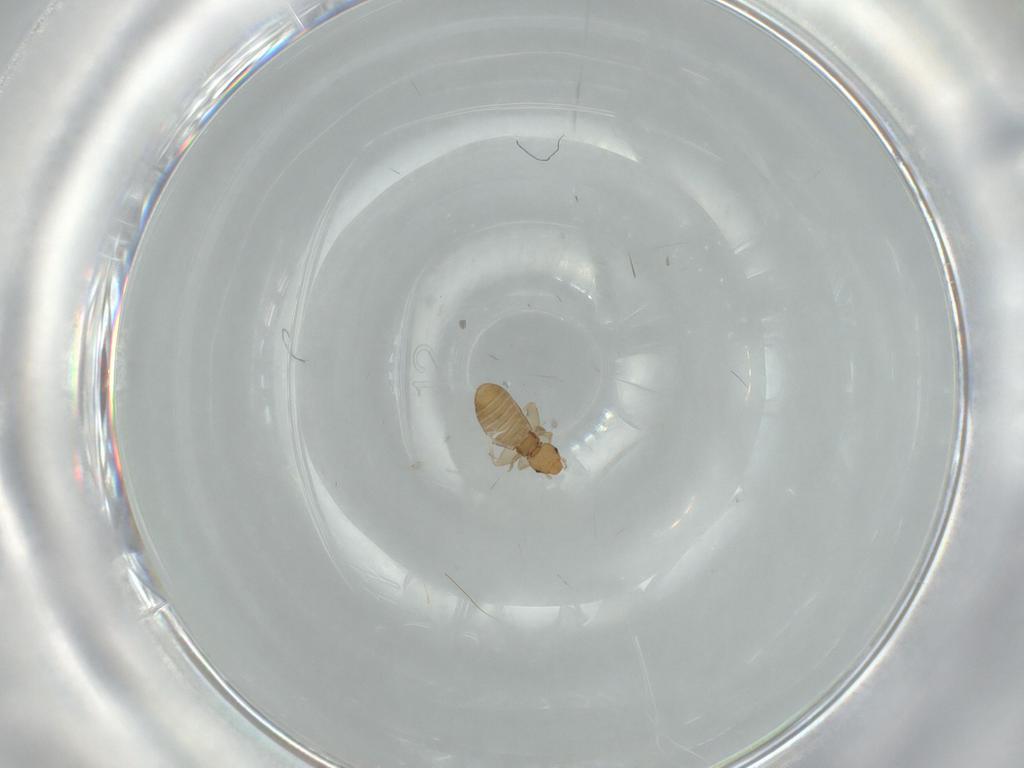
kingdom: Animalia
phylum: Arthropoda
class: Insecta
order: Psocodea
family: Liposcelididae
